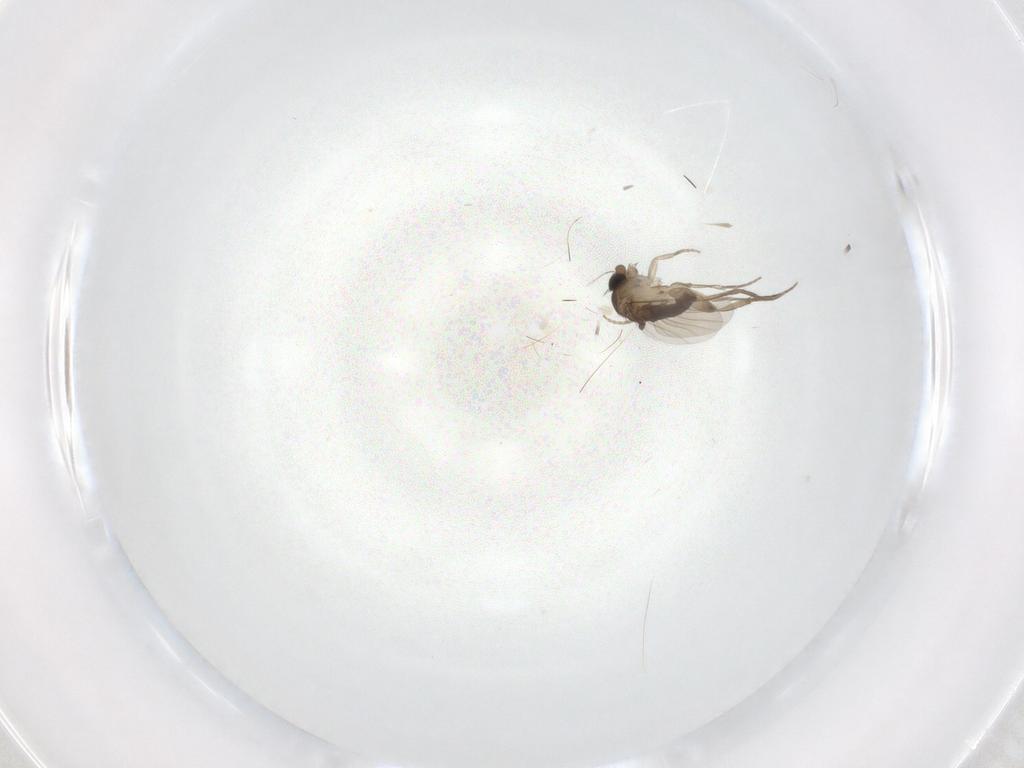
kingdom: Animalia
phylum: Arthropoda
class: Insecta
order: Diptera
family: Phoridae
